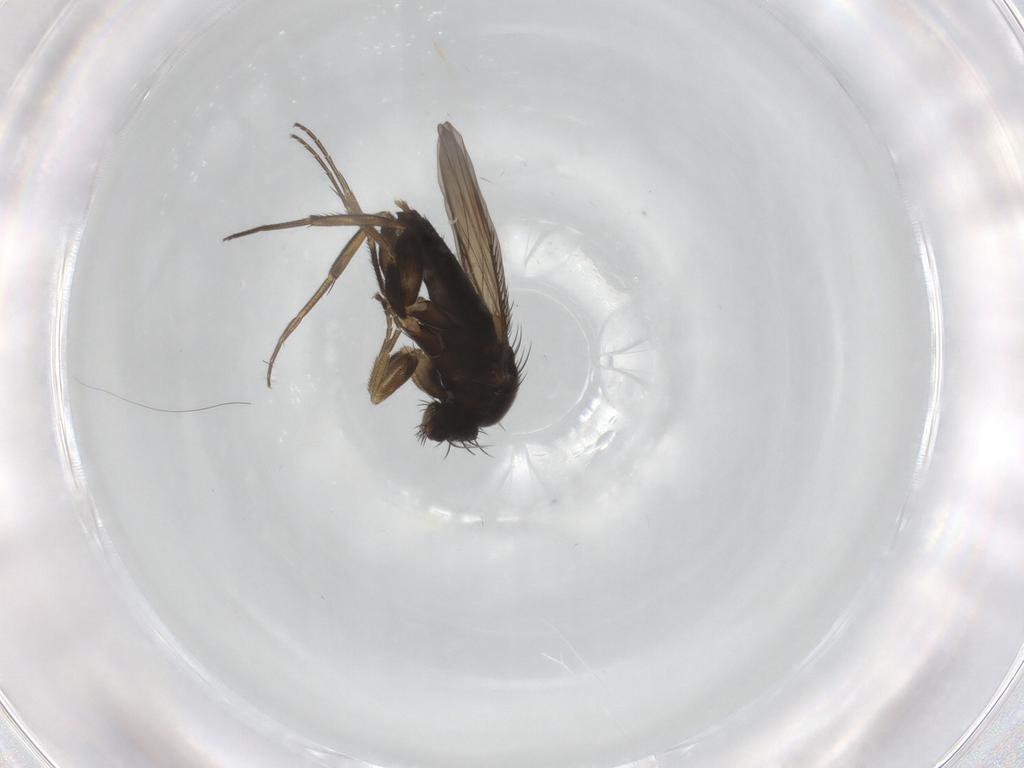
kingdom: Animalia
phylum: Arthropoda
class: Insecta
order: Diptera
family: Phoridae
